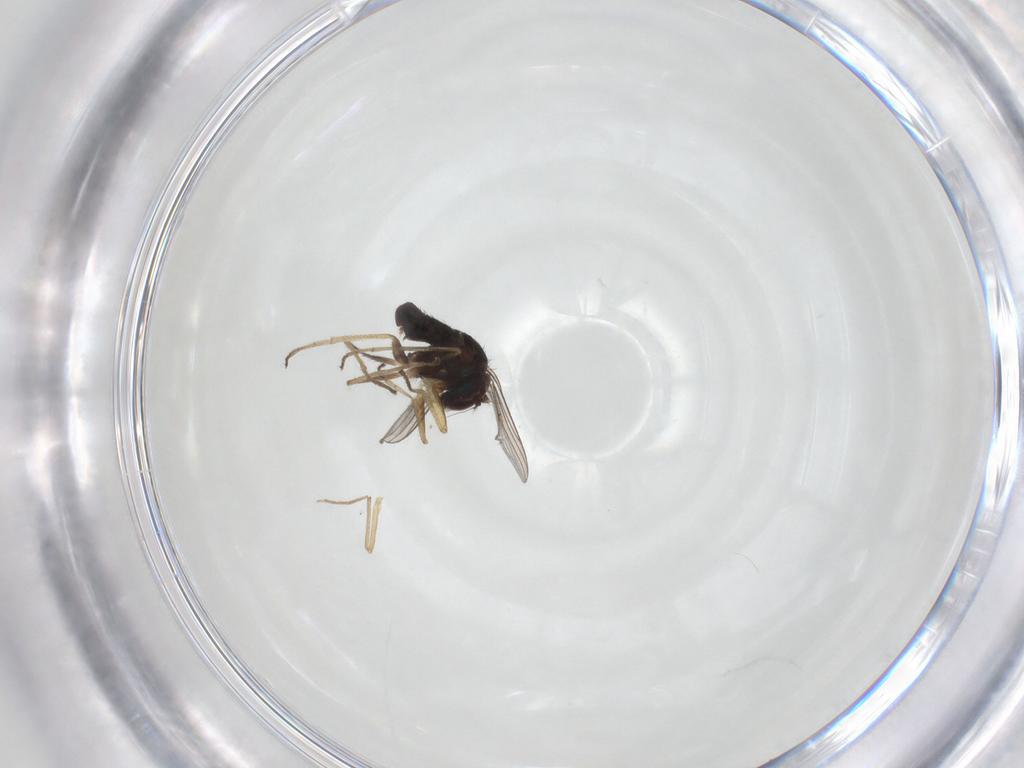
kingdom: Animalia
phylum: Arthropoda
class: Insecta
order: Diptera
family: Dolichopodidae
